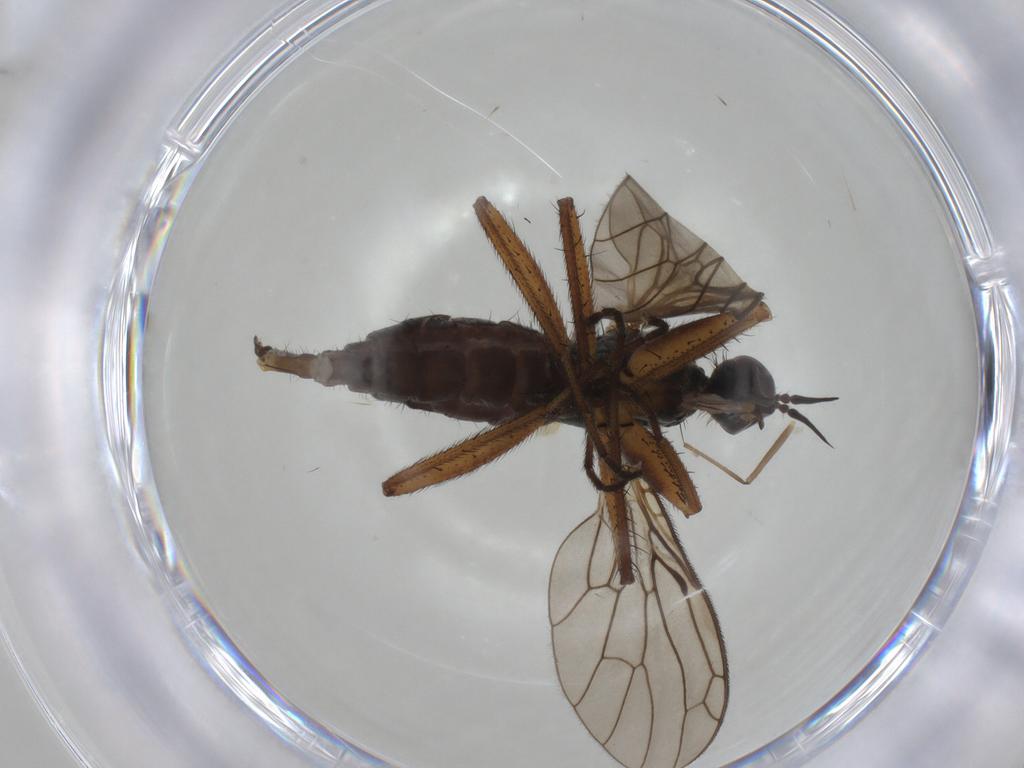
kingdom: Animalia
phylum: Arthropoda
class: Insecta
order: Diptera
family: Empididae
